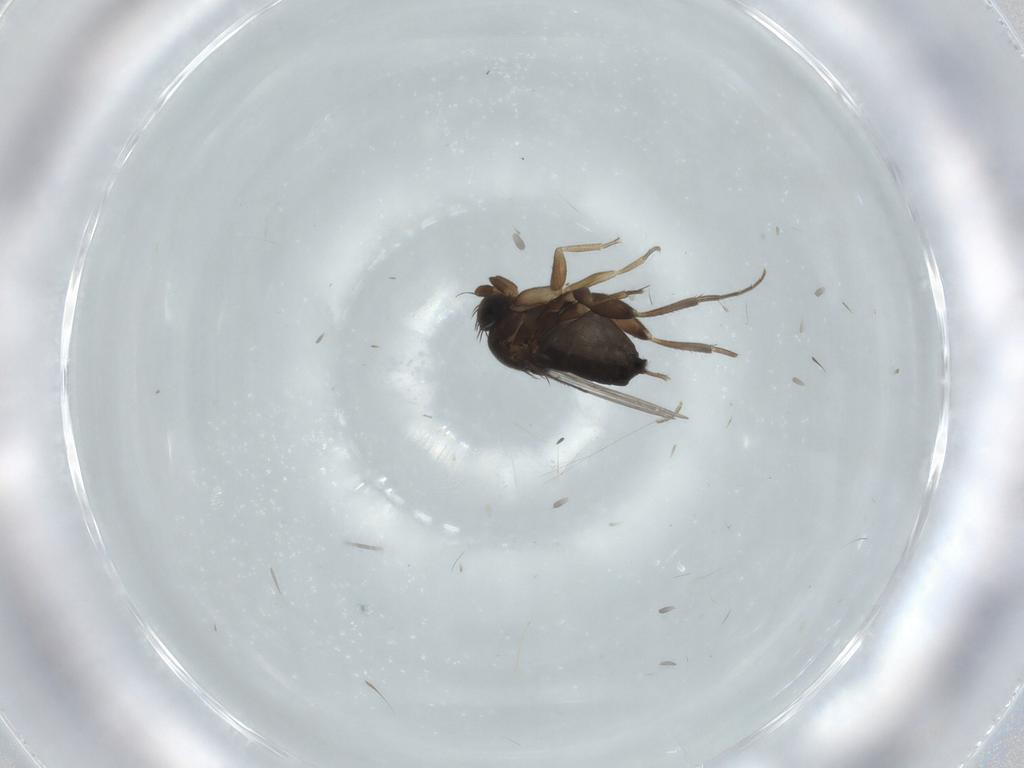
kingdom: Animalia
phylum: Arthropoda
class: Insecta
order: Diptera
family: Phoridae
